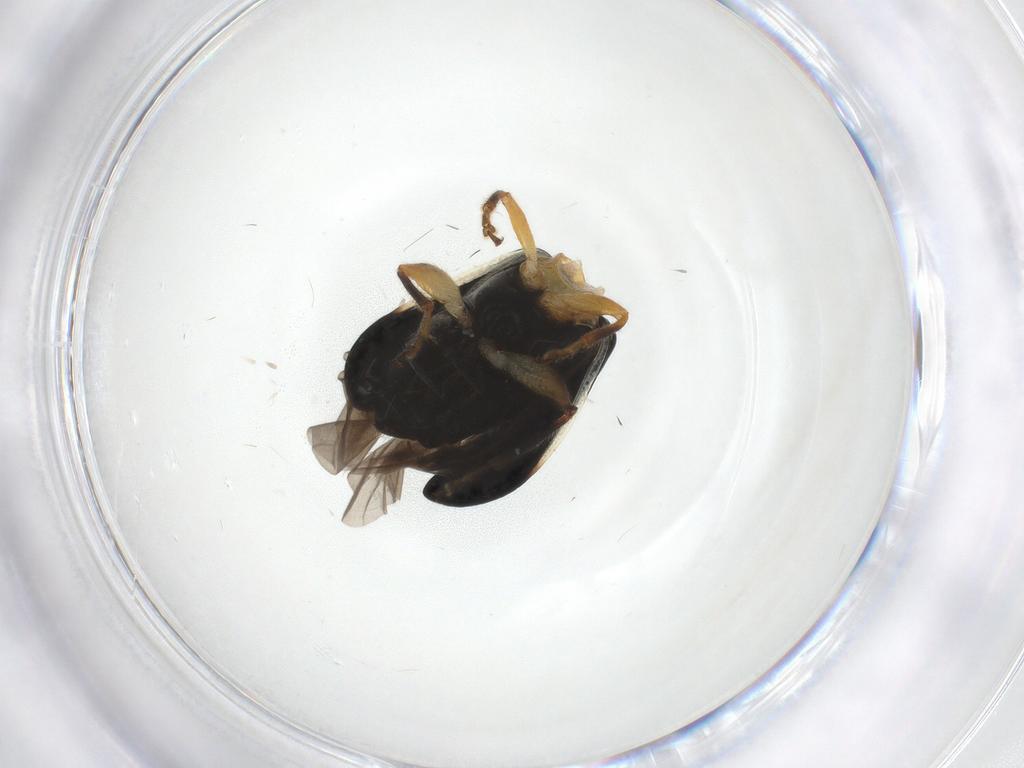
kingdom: Animalia
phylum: Arthropoda
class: Insecta
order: Coleoptera
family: Chrysomelidae
